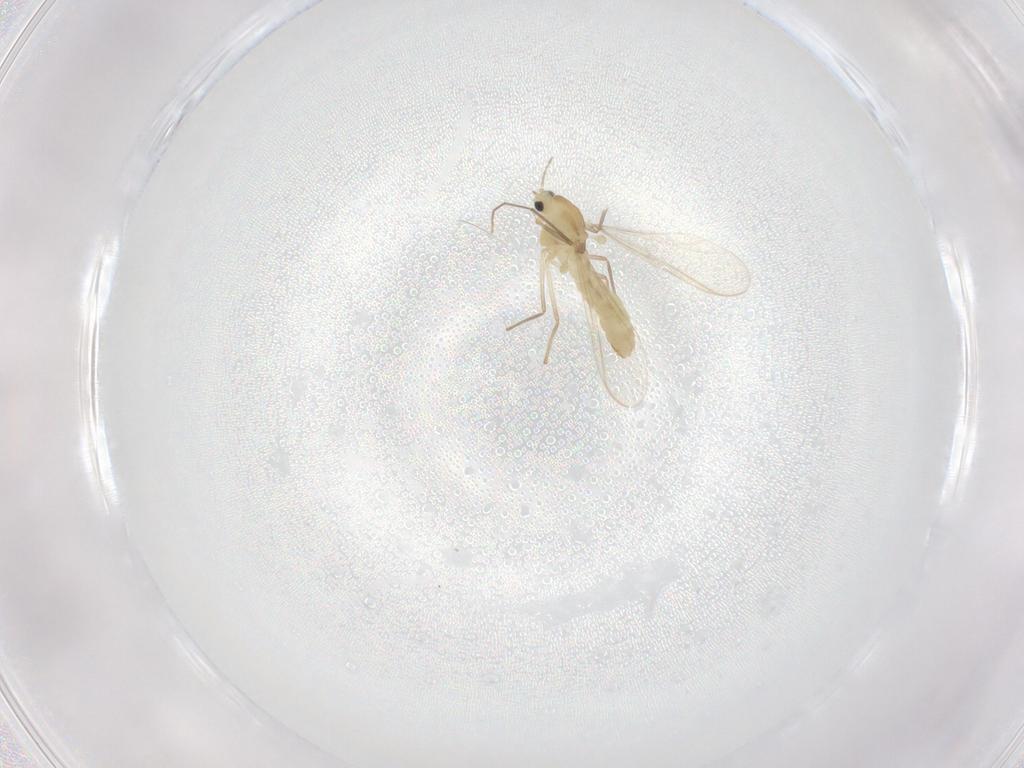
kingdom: Animalia
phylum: Arthropoda
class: Insecta
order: Diptera
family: Chironomidae
